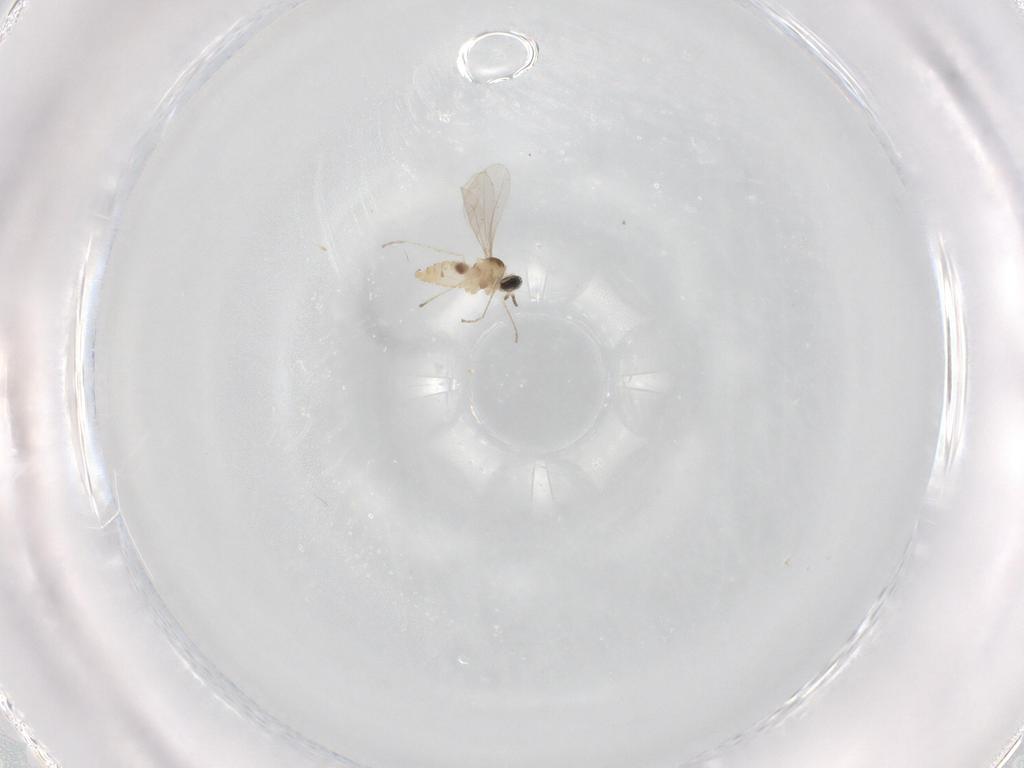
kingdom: Animalia
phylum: Arthropoda
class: Insecta
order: Diptera
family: Cecidomyiidae
